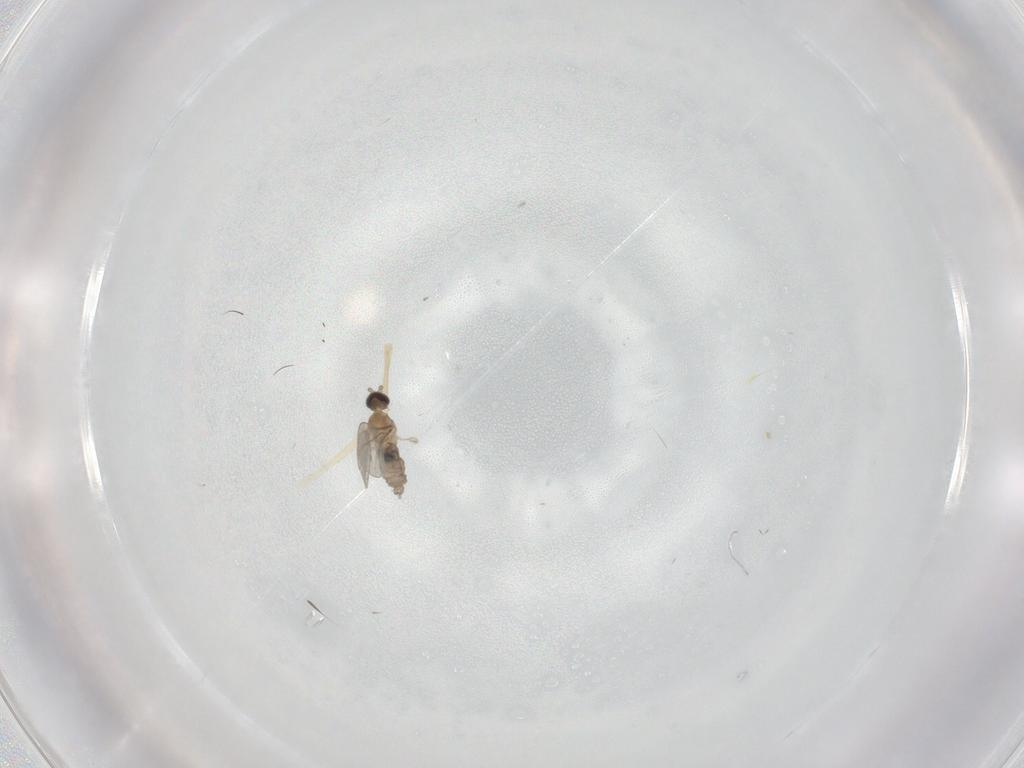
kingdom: Animalia
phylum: Arthropoda
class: Insecta
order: Diptera
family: Chironomidae
